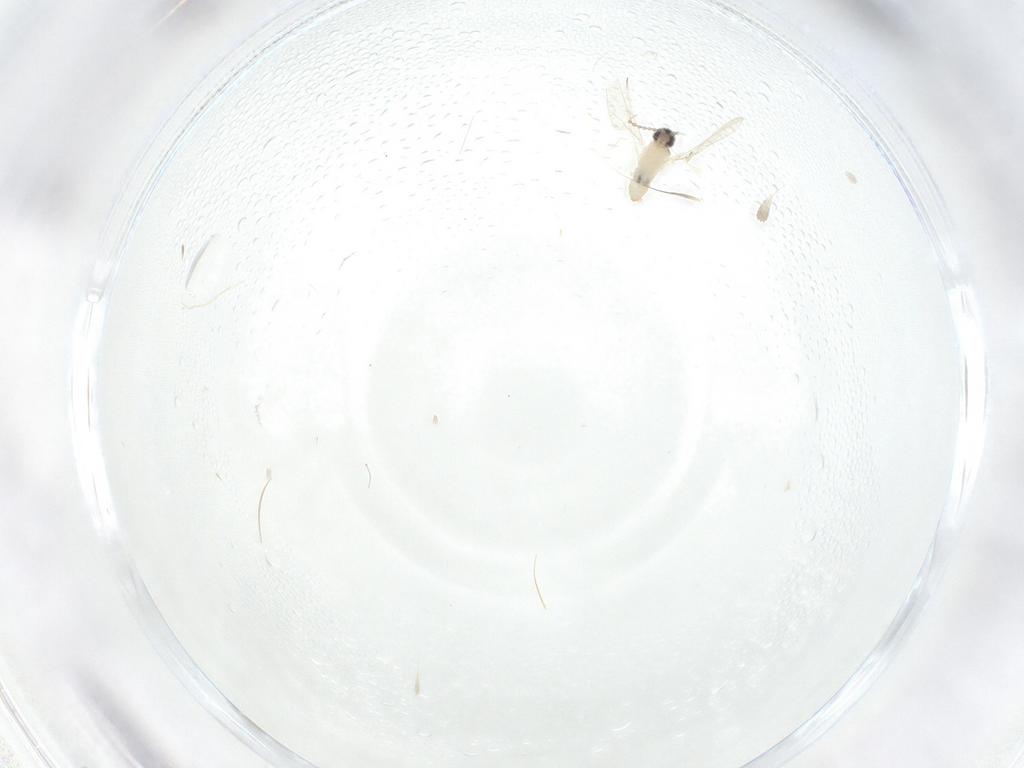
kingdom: Animalia
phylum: Arthropoda
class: Insecta
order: Diptera
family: Cecidomyiidae
